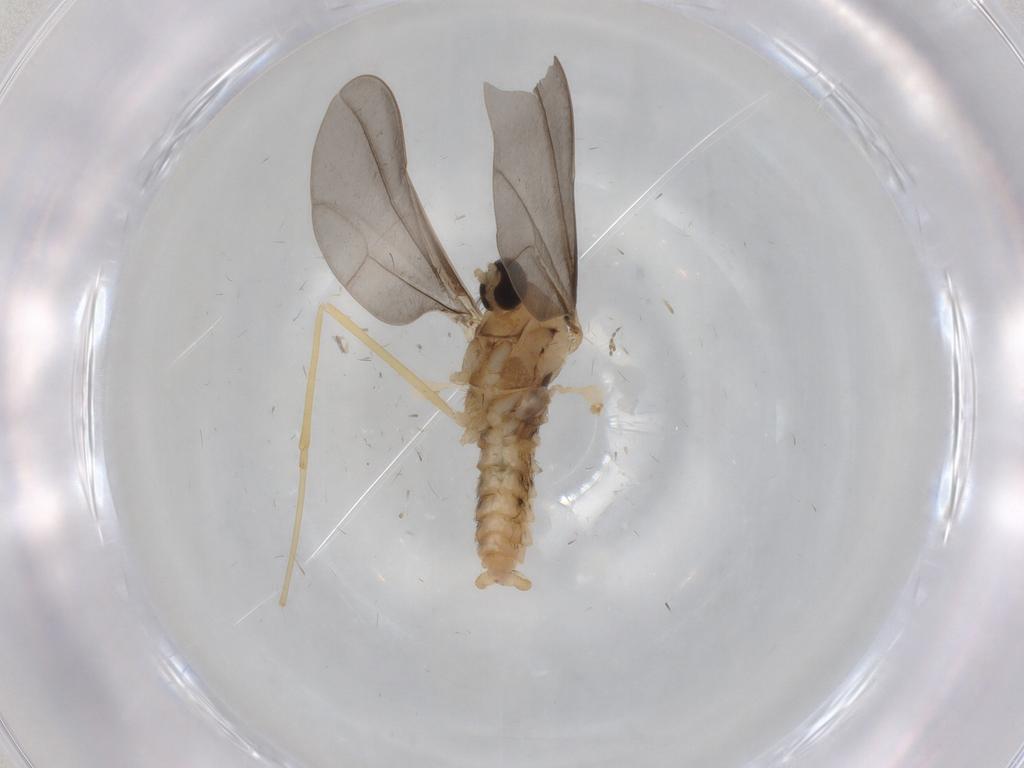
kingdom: Animalia
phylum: Arthropoda
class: Insecta
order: Diptera
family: Cecidomyiidae
